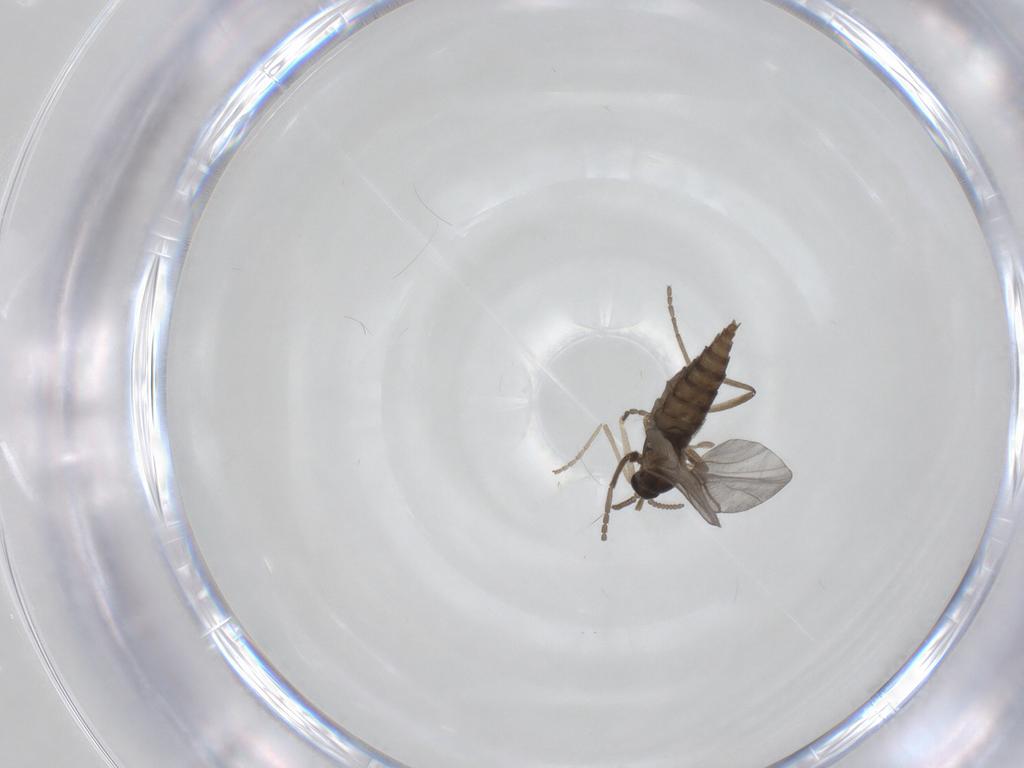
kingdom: Animalia
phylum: Arthropoda
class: Insecta
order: Diptera
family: Cecidomyiidae
